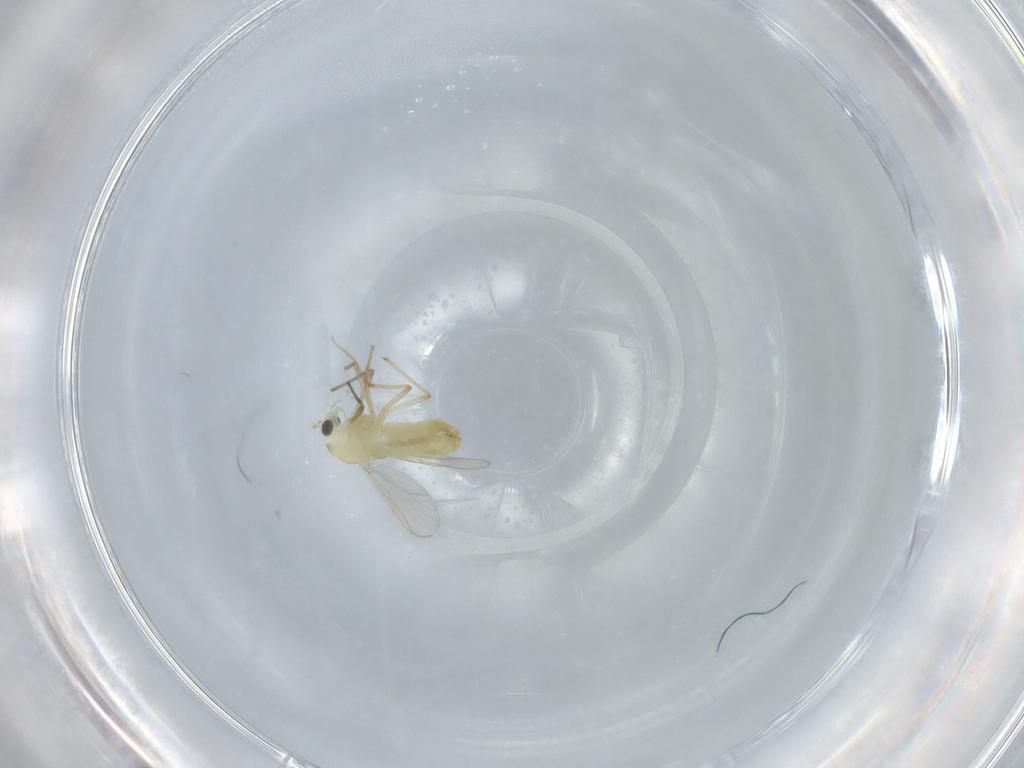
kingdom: Animalia
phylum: Arthropoda
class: Insecta
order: Diptera
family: Chironomidae
